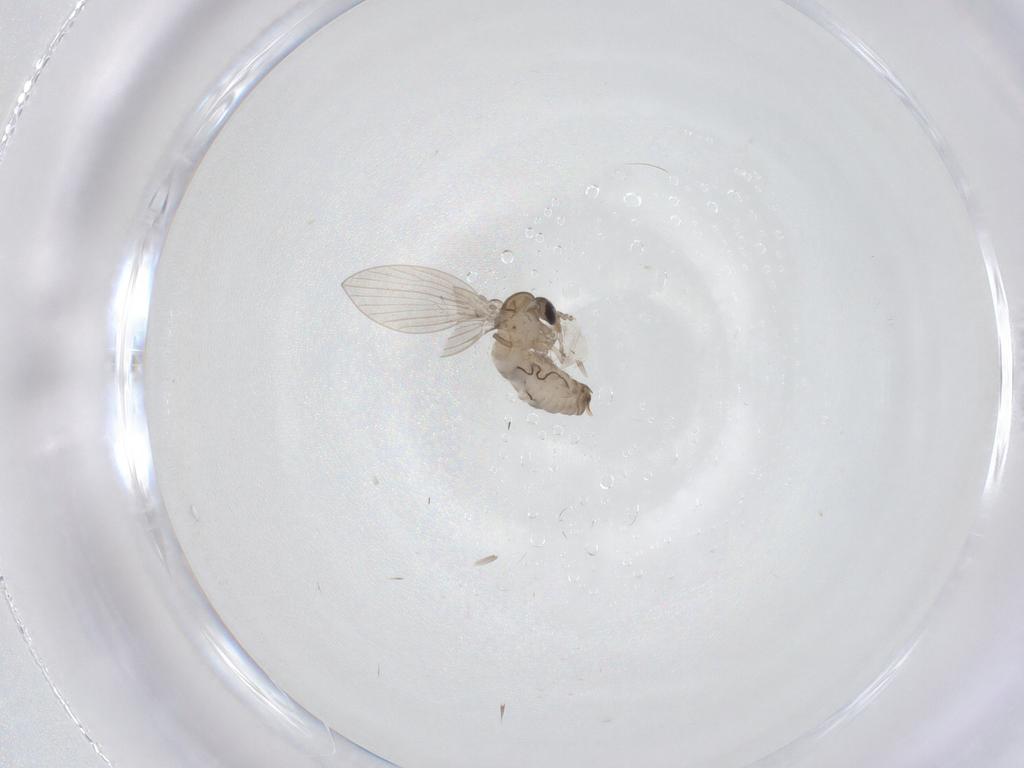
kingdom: Animalia
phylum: Arthropoda
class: Insecta
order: Diptera
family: Psychodidae
